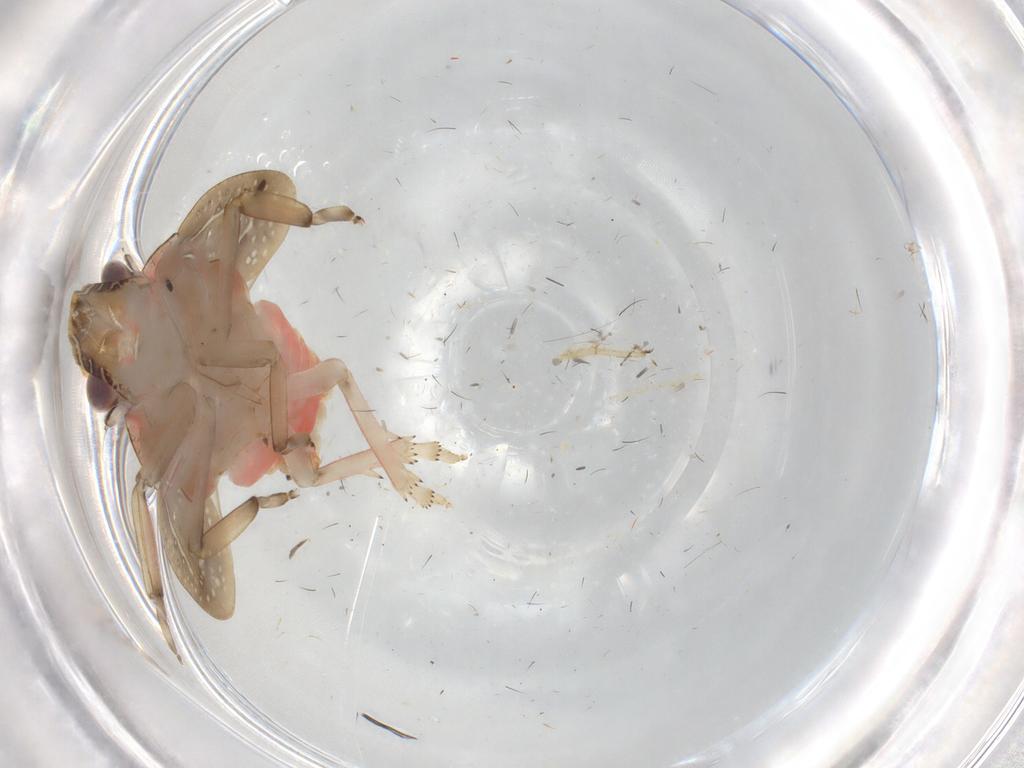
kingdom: Animalia
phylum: Arthropoda
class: Insecta
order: Hemiptera
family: Eurybrachidae
